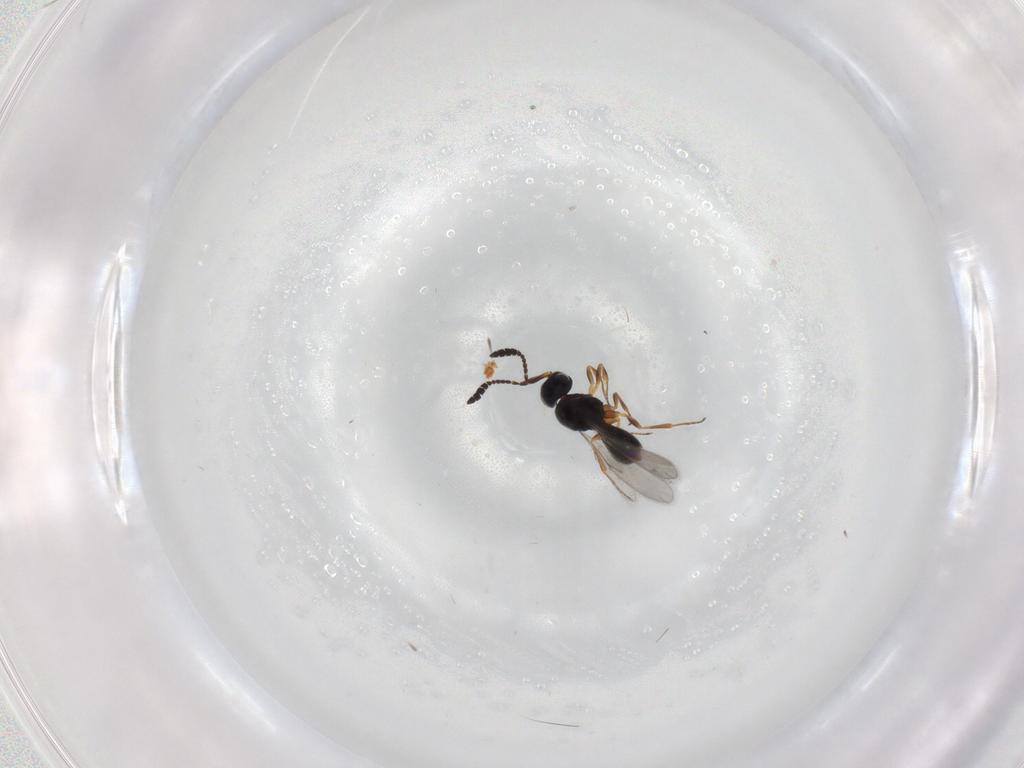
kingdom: Animalia
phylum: Arthropoda
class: Insecta
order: Hymenoptera
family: Scelionidae
